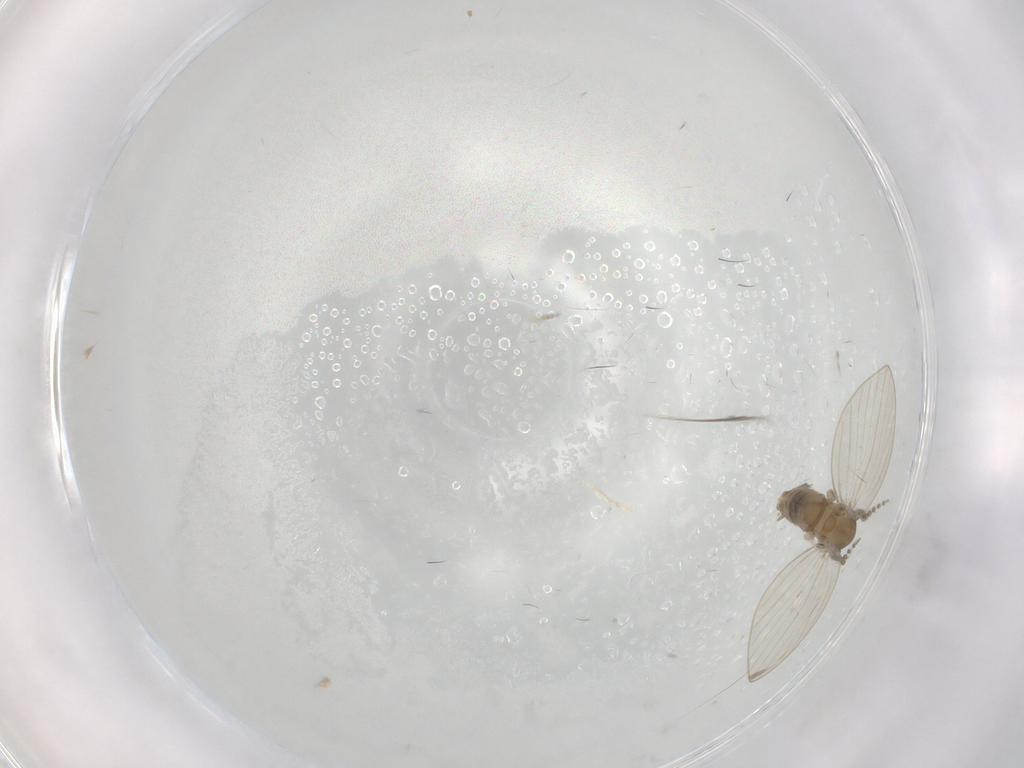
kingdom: Animalia
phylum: Arthropoda
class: Insecta
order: Diptera
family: Cecidomyiidae
